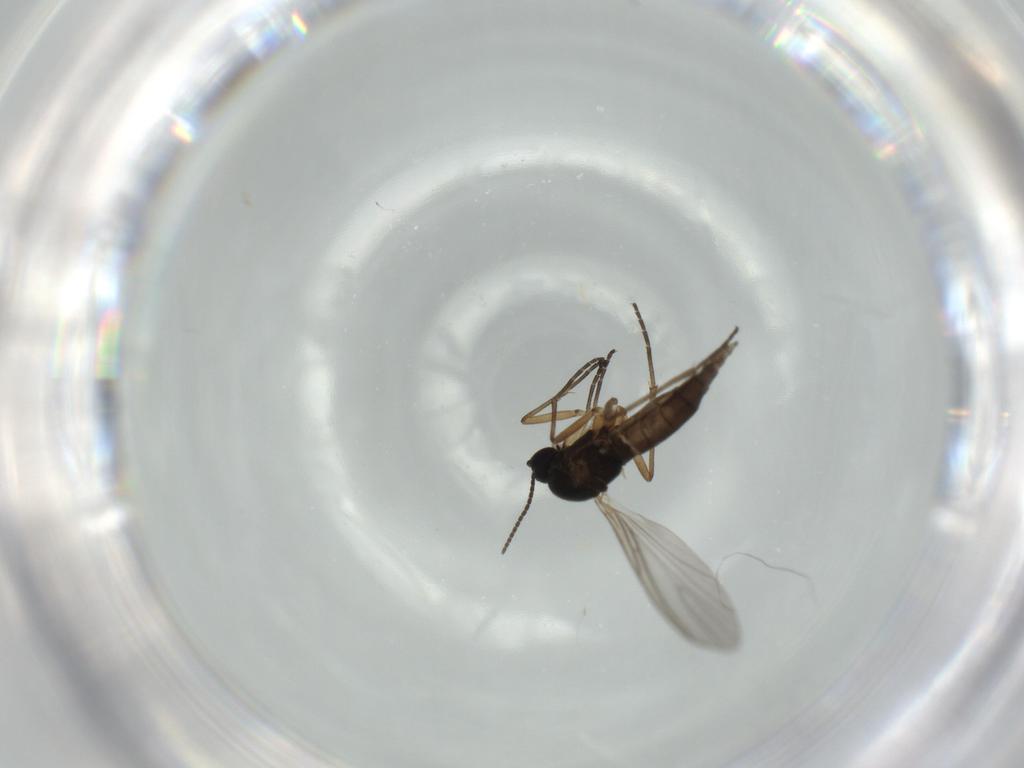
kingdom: Animalia
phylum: Arthropoda
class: Insecta
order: Diptera
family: Sciaridae
